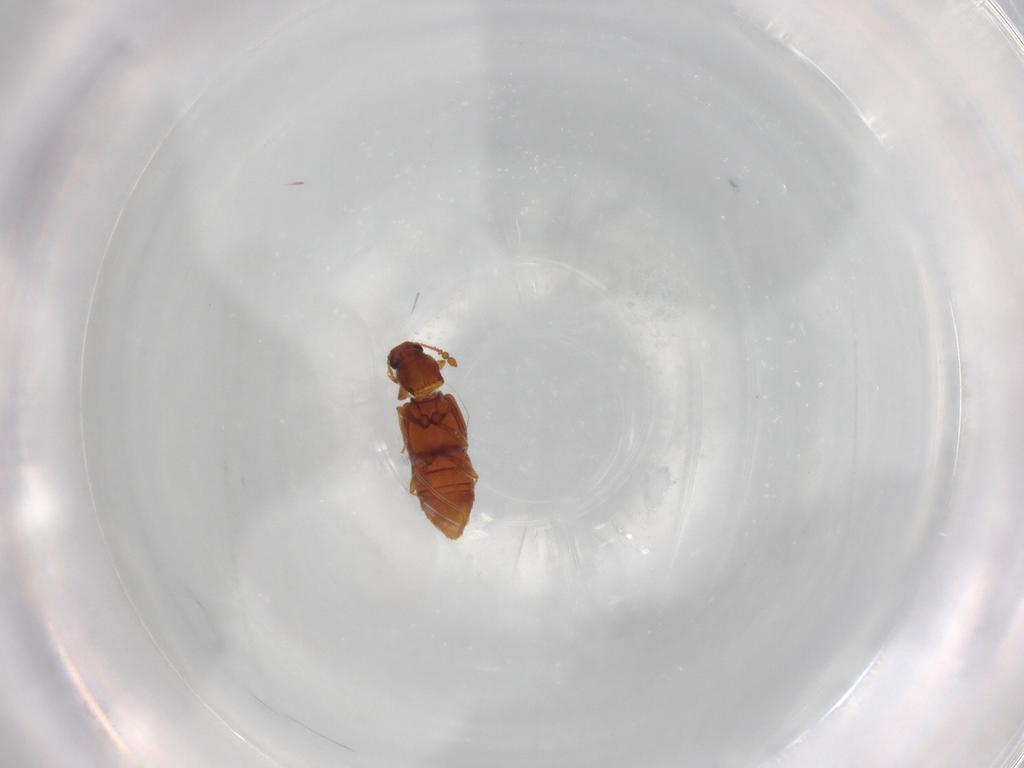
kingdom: Animalia
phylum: Arthropoda
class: Insecta
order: Coleoptera
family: Staphylinidae
